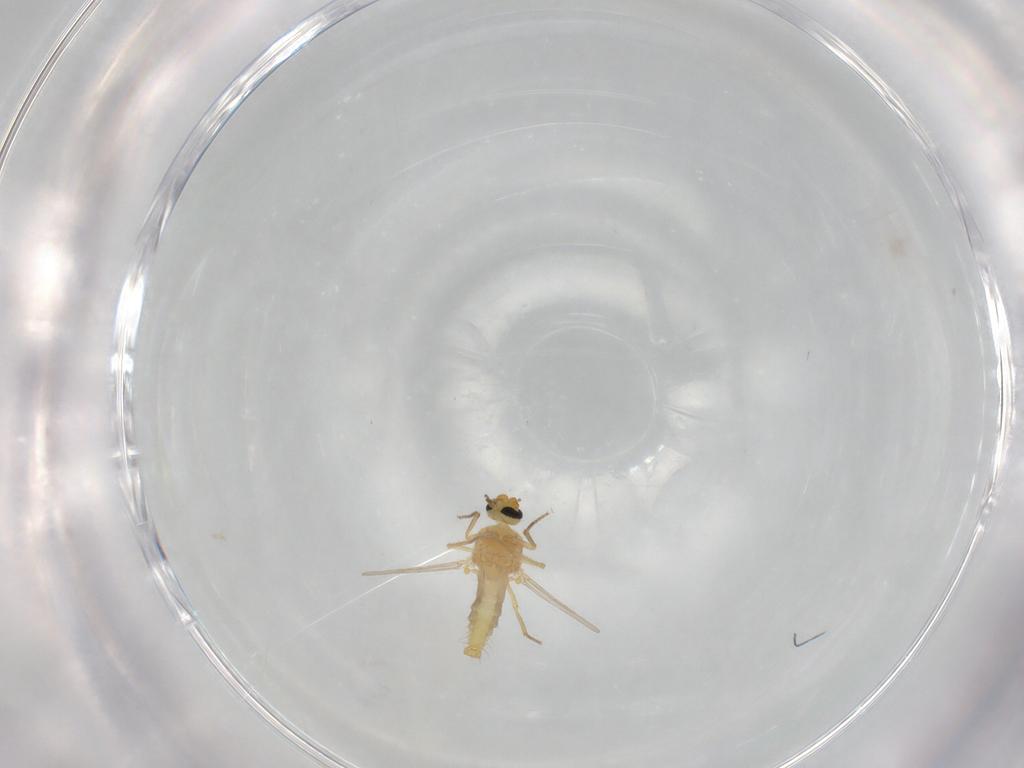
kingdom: Animalia
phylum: Arthropoda
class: Insecta
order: Diptera
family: Ceratopogonidae
